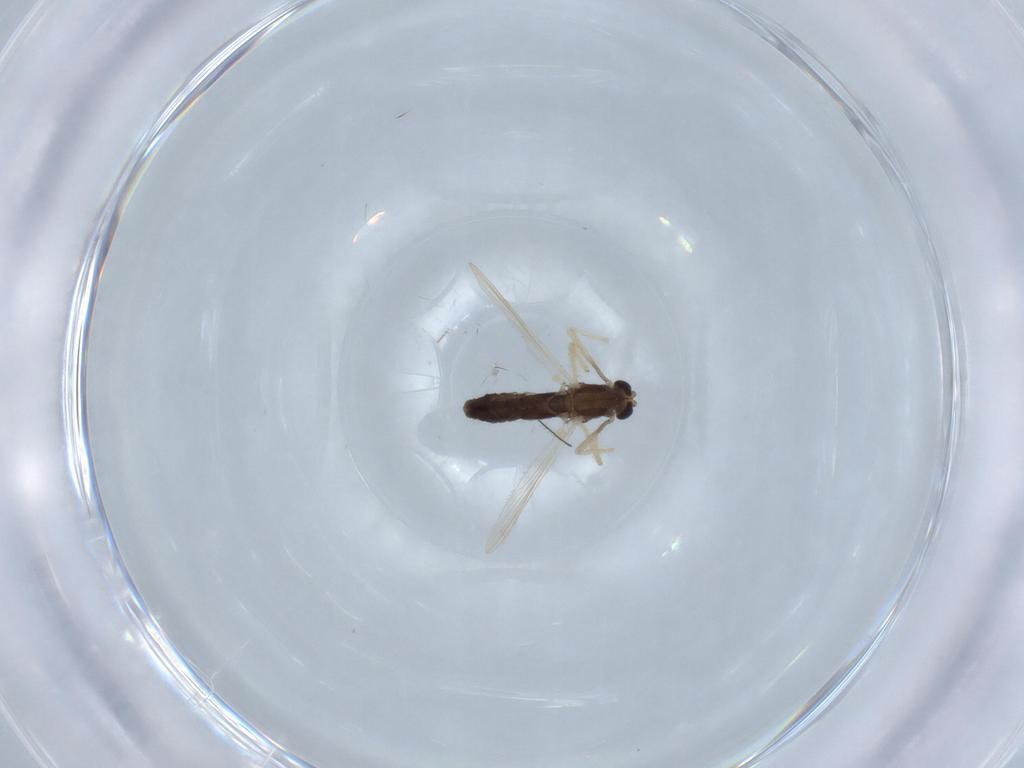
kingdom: Animalia
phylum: Arthropoda
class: Insecta
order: Diptera
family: Chironomidae
